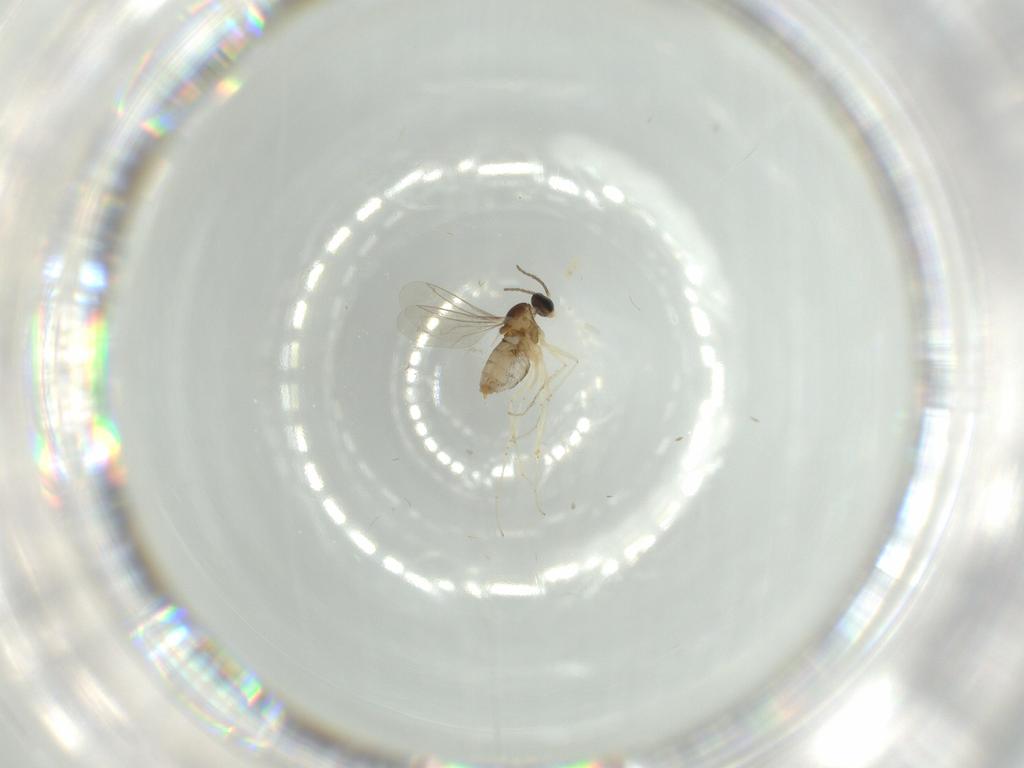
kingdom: Animalia
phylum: Arthropoda
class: Insecta
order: Diptera
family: Cecidomyiidae
